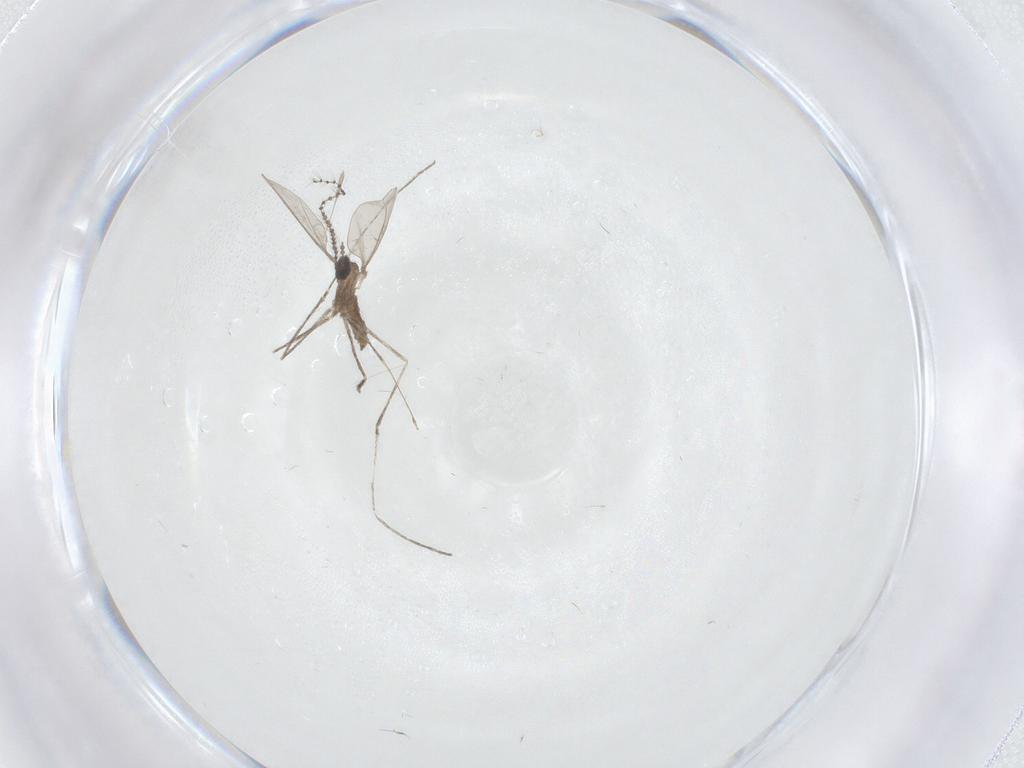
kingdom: Animalia
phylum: Arthropoda
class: Insecta
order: Diptera
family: Cecidomyiidae
